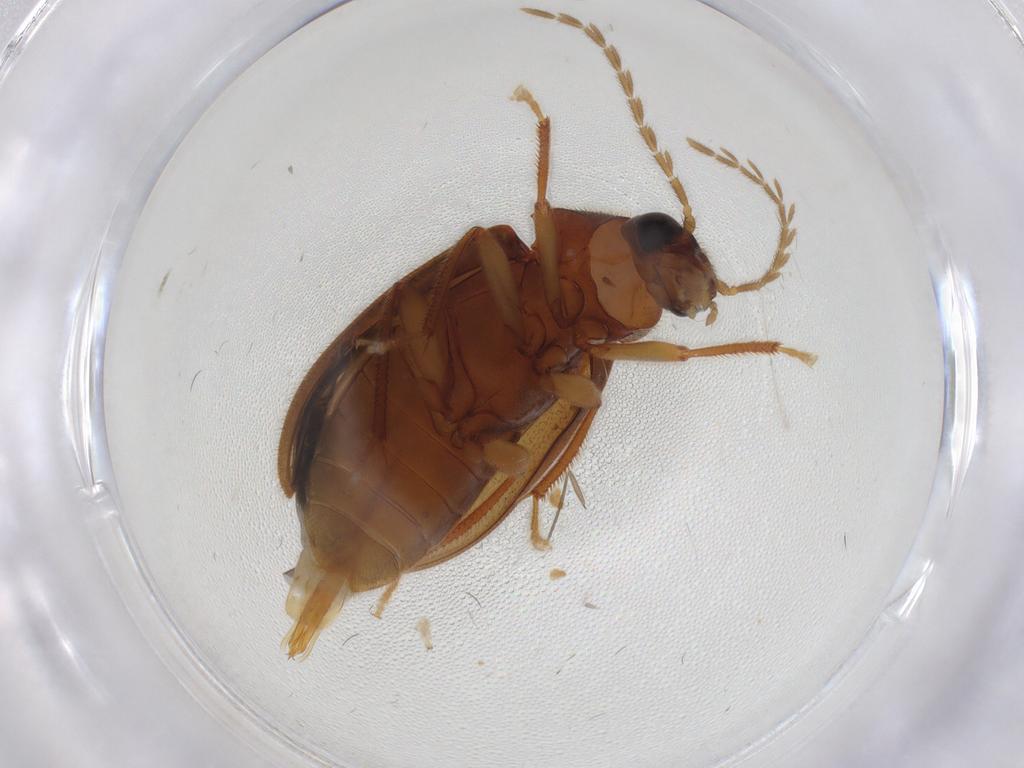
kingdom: Animalia
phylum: Arthropoda
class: Insecta
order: Coleoptera
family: Ptilodactylidae
